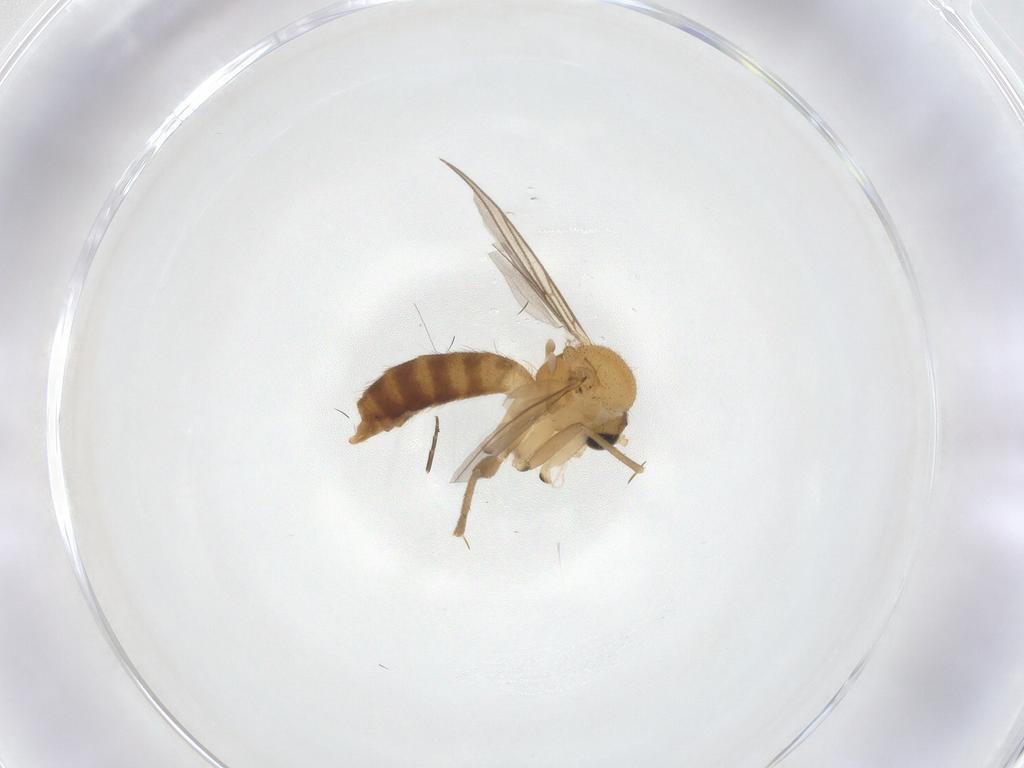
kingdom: Animalia
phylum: Arthropoda
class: Insecta
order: Diptera
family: Mycetophilidae
